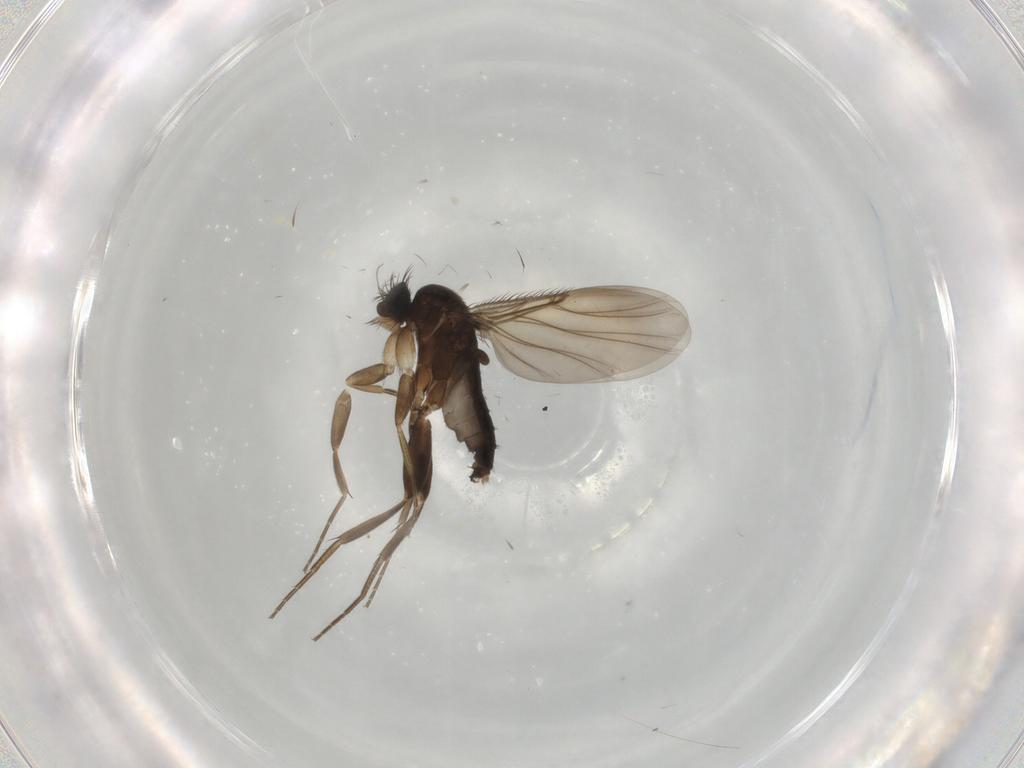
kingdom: Animalia
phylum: Arthropoda
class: Insecta
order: Diptera
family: Phoridae
